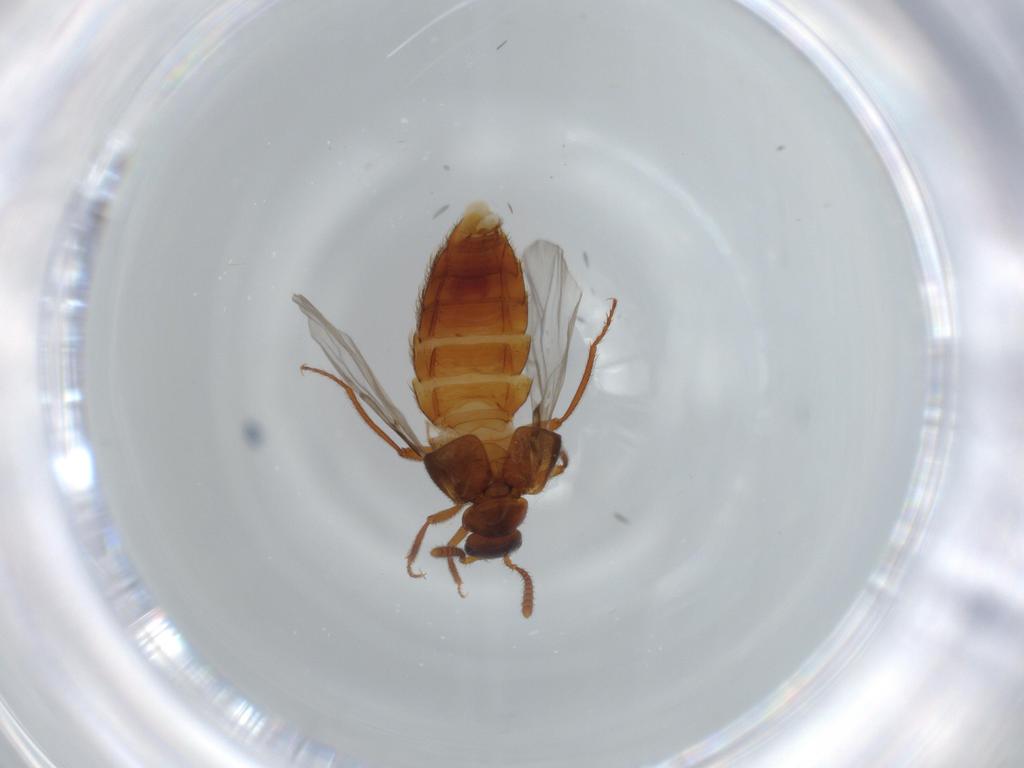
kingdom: Animalia
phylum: Arthropoda
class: Insecta
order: Coleoptera
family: Staphylinidae
